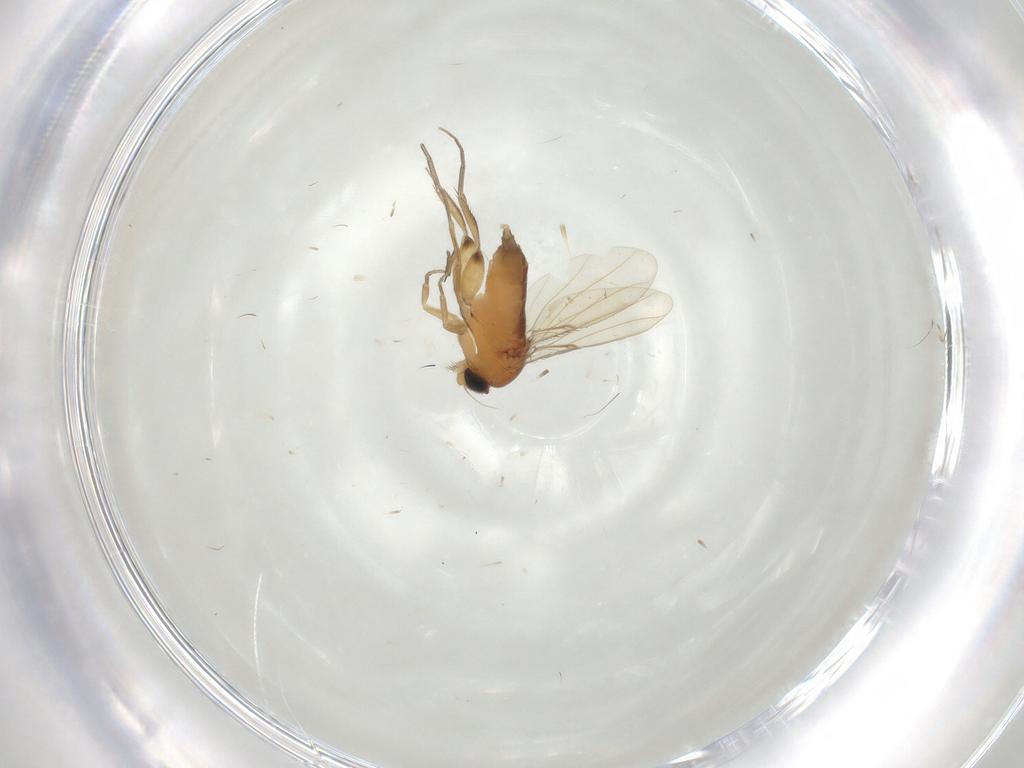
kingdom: Animalia
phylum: Arthropoda
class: Insecta
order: Diptera
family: Phoridae
